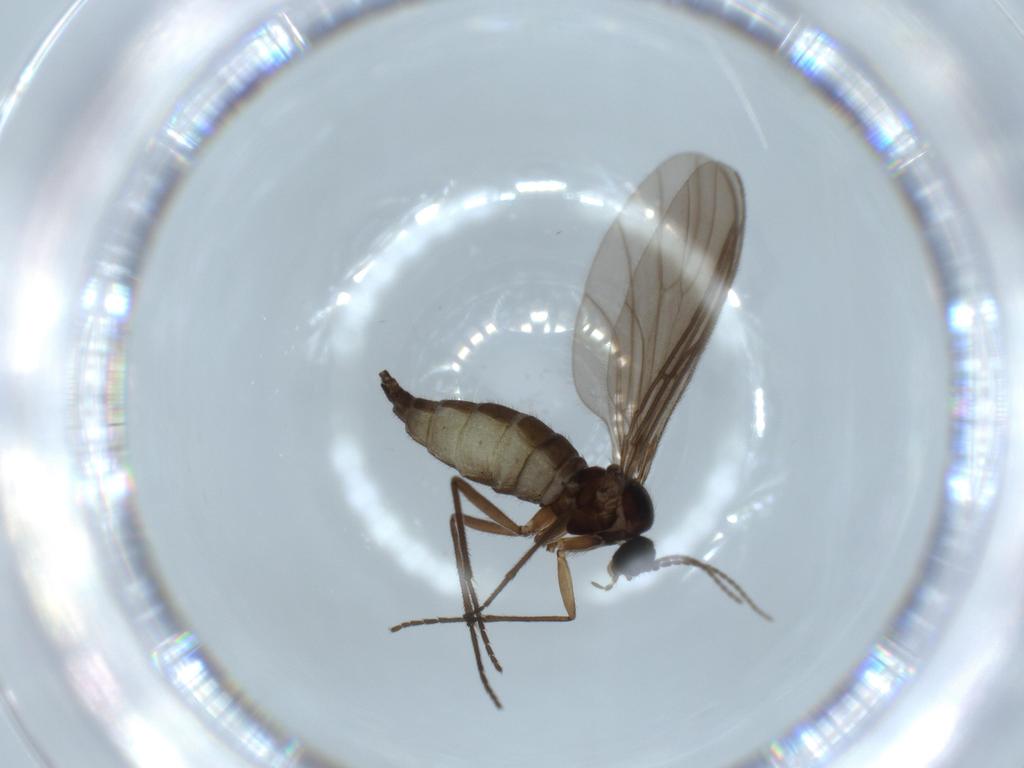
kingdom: Animalia
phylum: Arthropoda
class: Insecta
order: Diptera
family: Sciaridae
